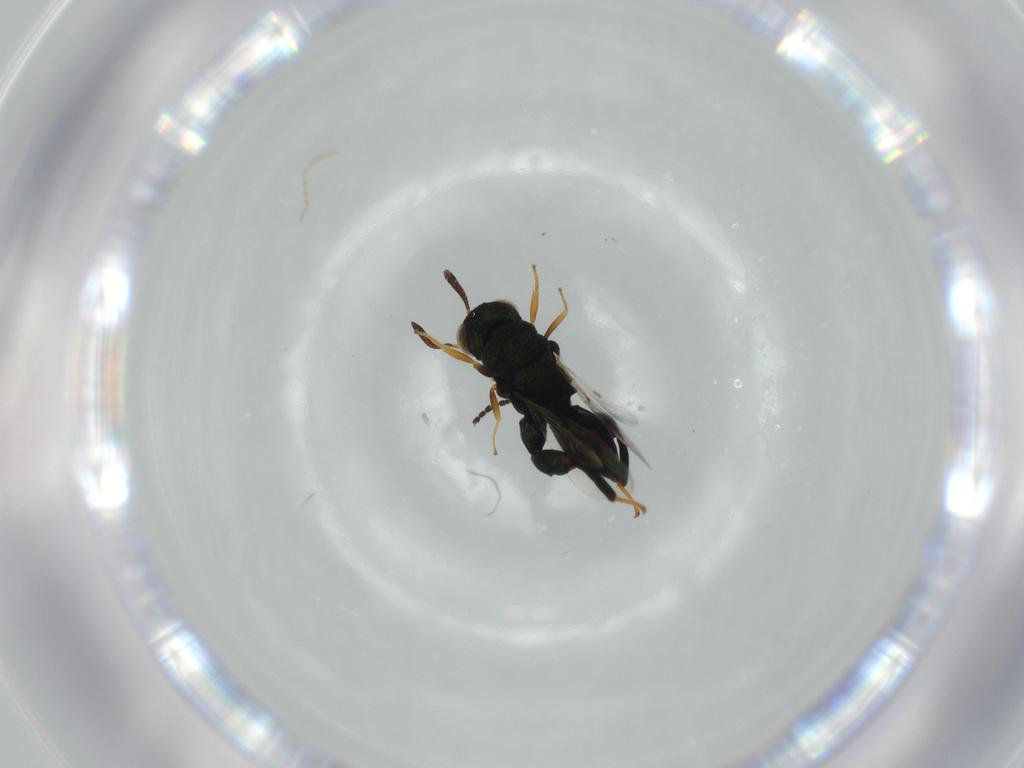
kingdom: Animalia
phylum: Arthropoda
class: Insecta
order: Hymenoptera
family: Scelionidae
